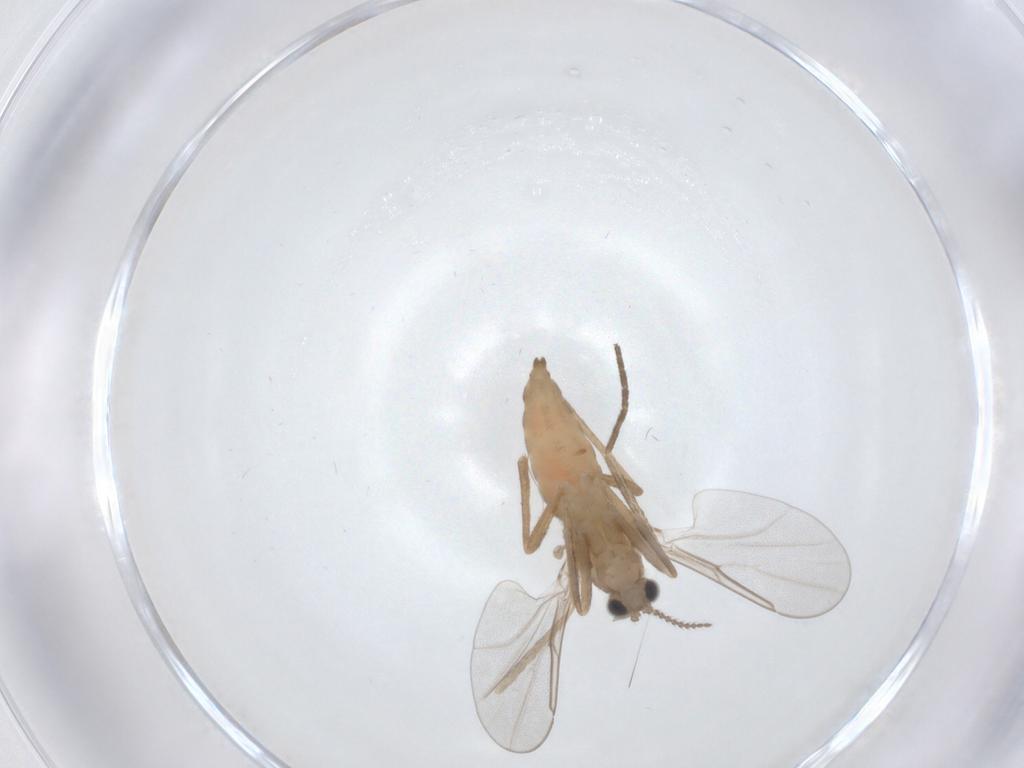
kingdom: Animalia
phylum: Arthropoda
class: Insecta
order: Diptera
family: Cecidomyiidae
